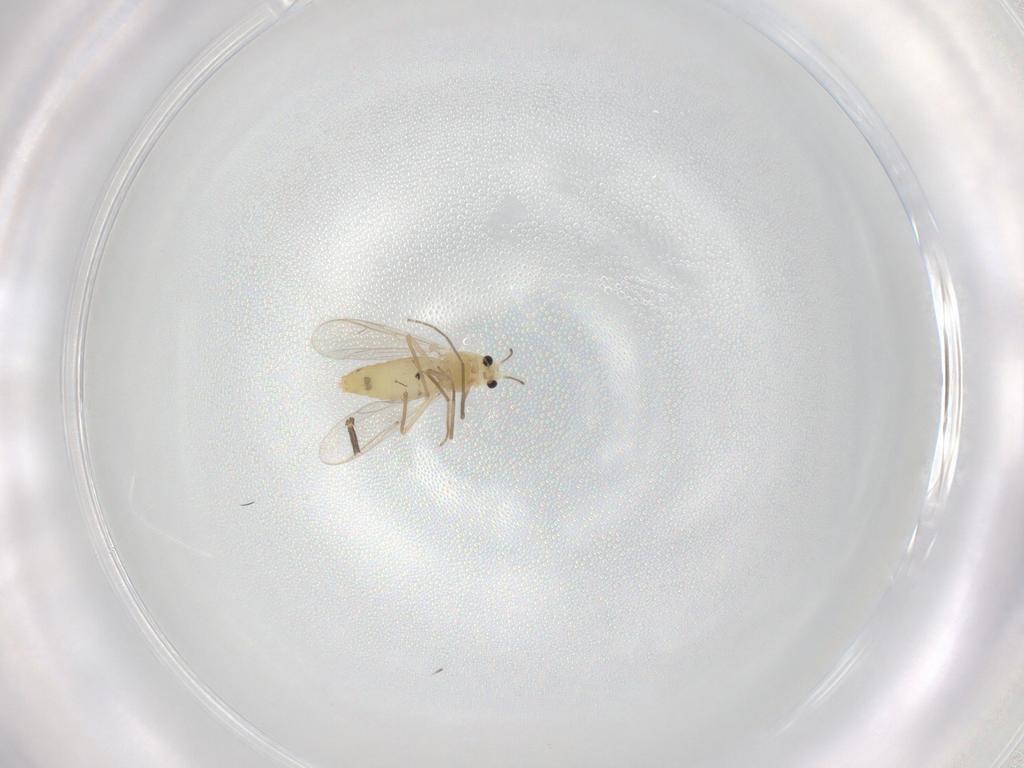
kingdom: Animalia
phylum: Arthropoda
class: Insecta
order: Diptera
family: Chironomidae
